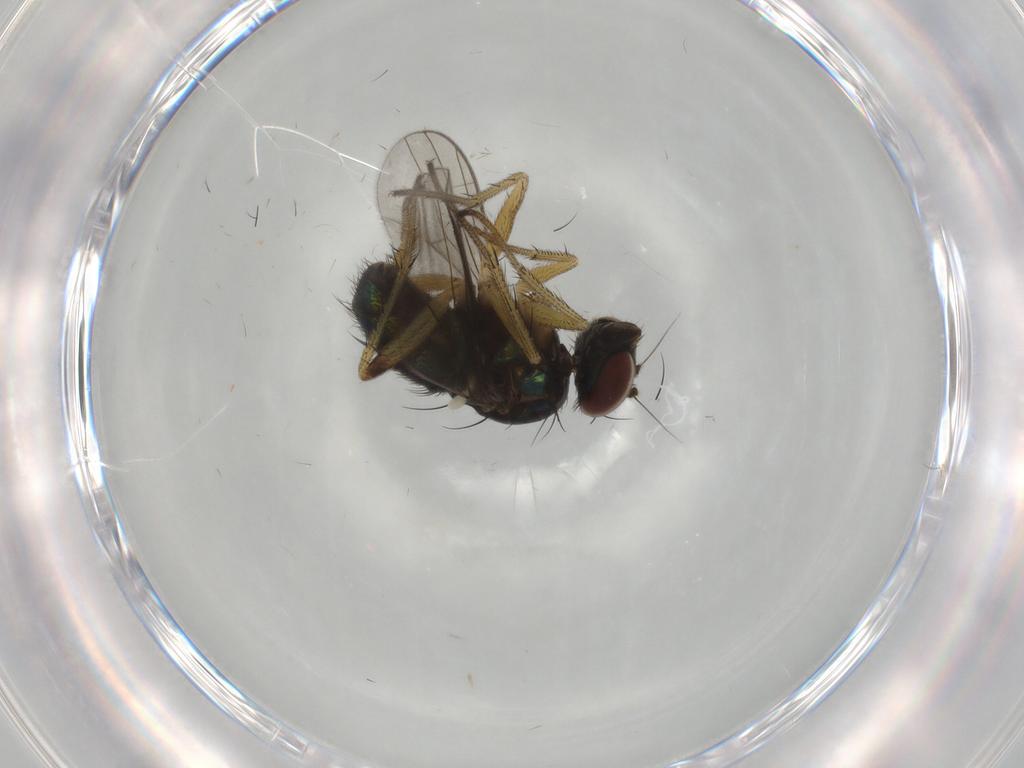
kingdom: Animalia
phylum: Arthropoda
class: Insecta
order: Diptera
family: Dolichopodidae
